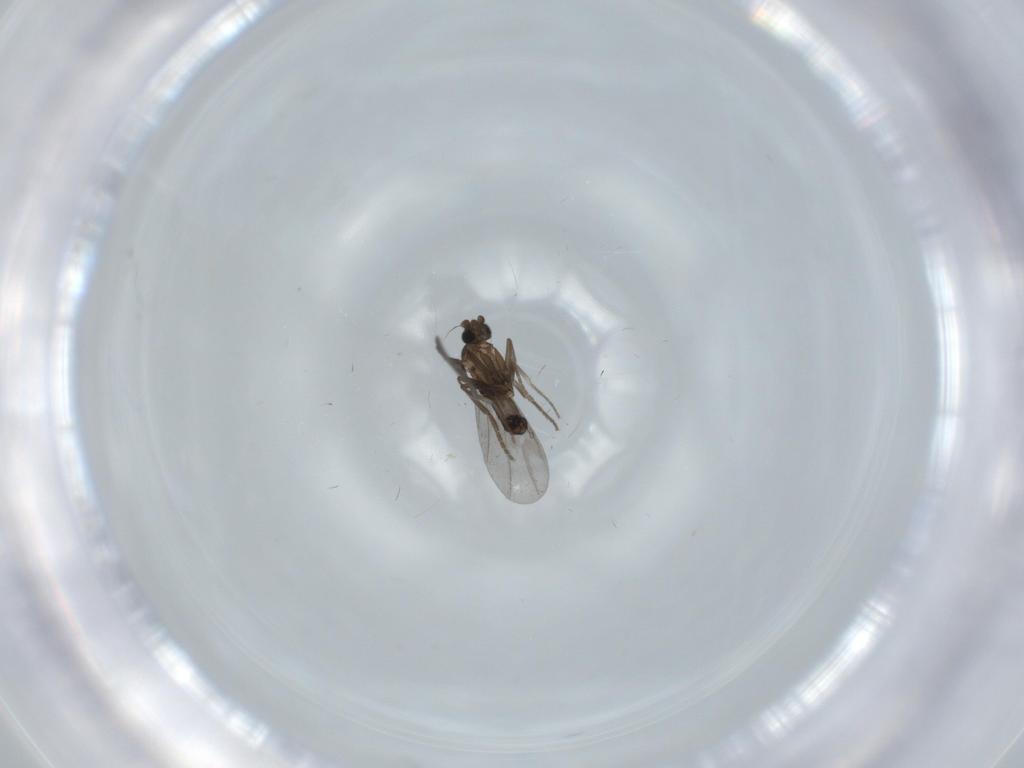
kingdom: Animalia
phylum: Arthropoda
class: Insecta
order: Diptera
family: Phoridae
